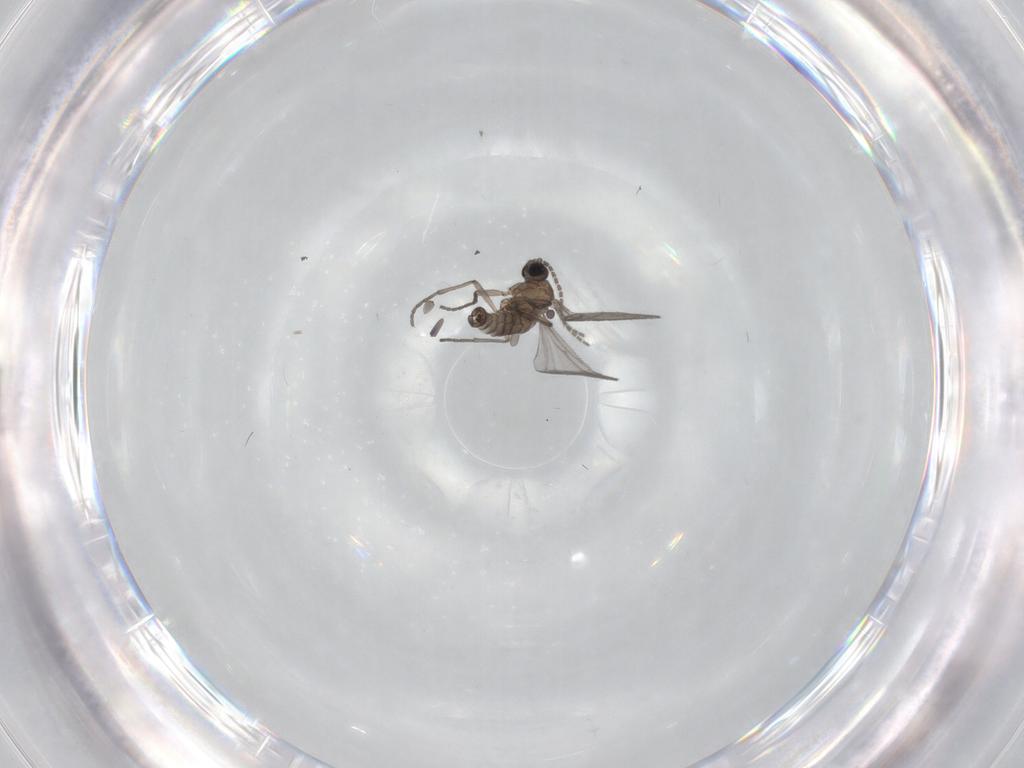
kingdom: Animalia
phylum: Arthropoda
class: Insecta
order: Diptera
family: Sciaridae
